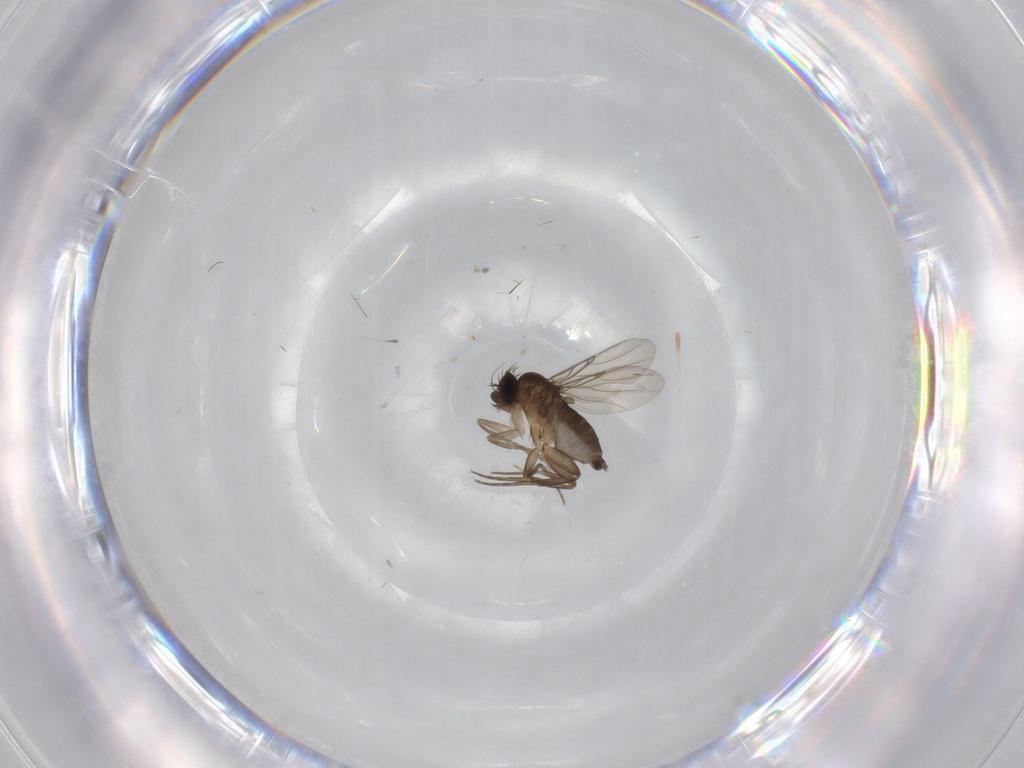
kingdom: Animalia
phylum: Arthropoda
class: Insecta
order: Diptera
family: Phoridae
